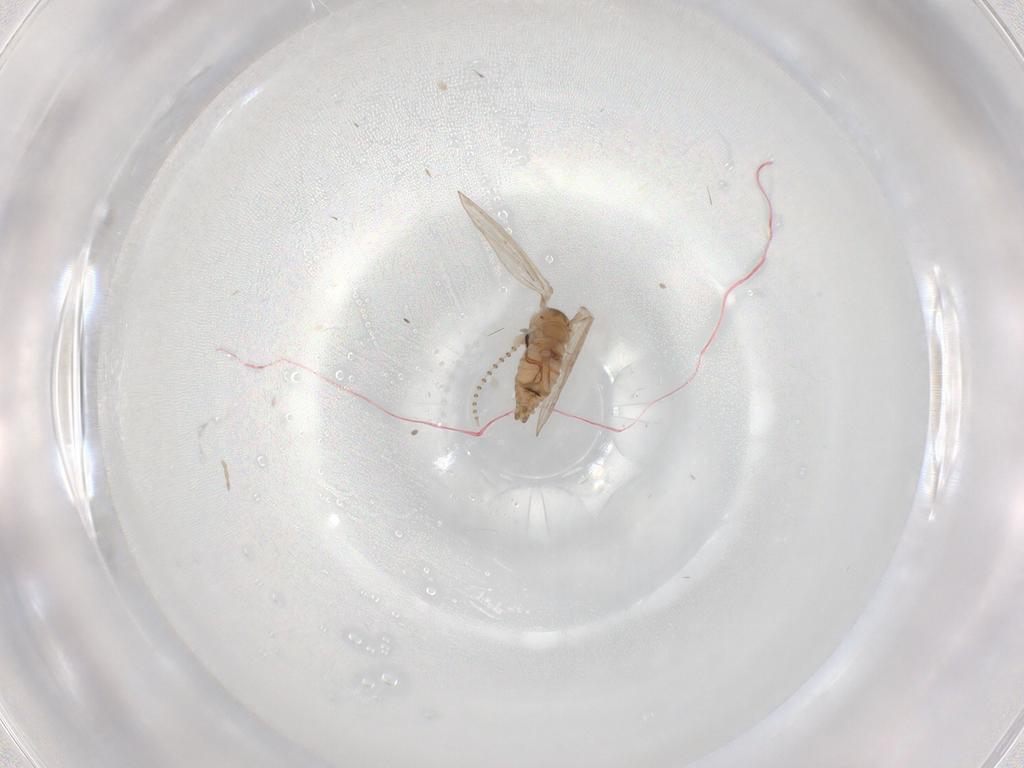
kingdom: Animalia
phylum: Arthropoda
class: Insecta
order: Diptera
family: Psychodidae
